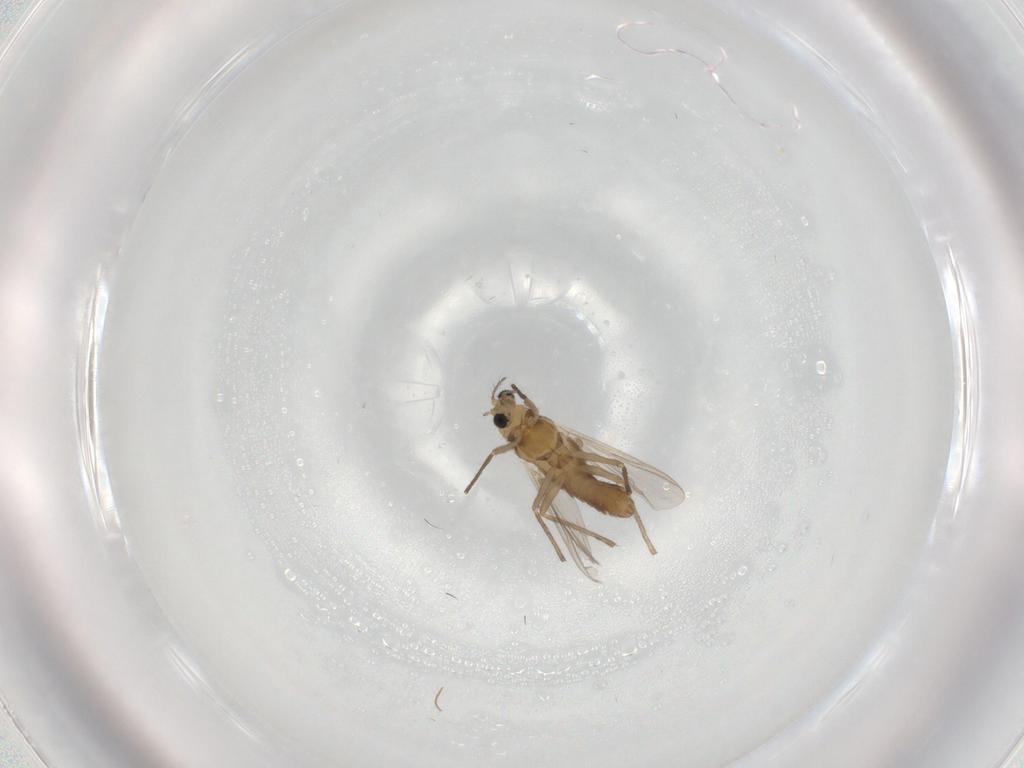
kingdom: Animalia
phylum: Arthropoda
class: Insecta
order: Diptera
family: Chironomidae
